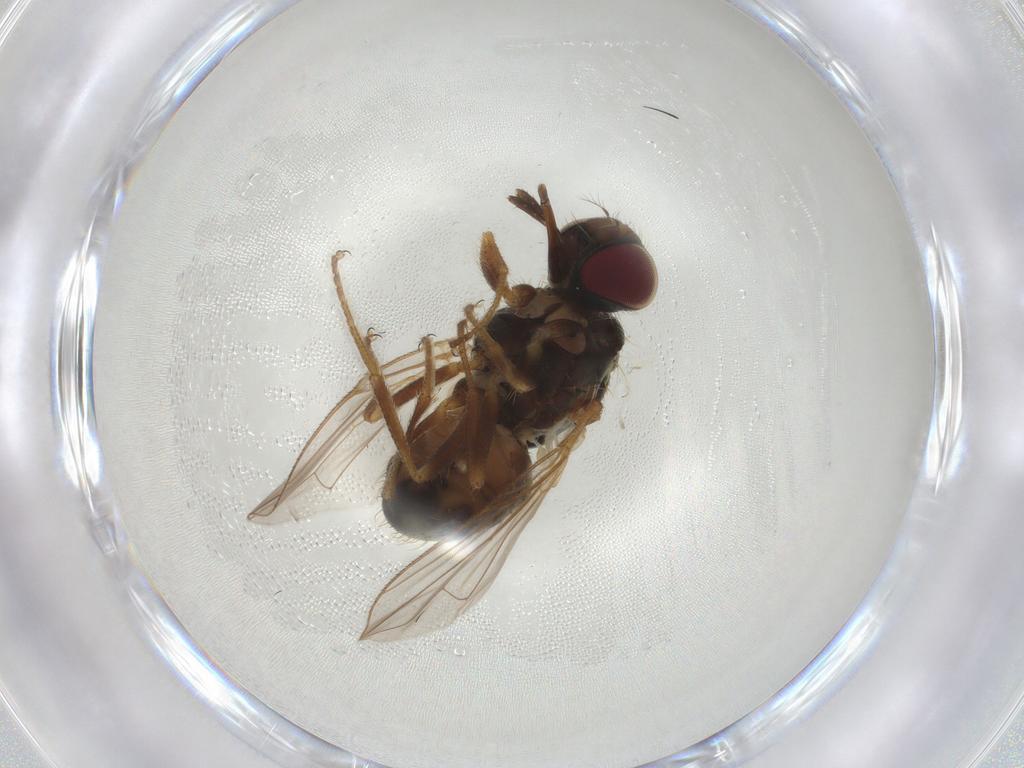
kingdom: Animalia
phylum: Arthropoda
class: Insecta
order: Diptera
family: Muscidae
